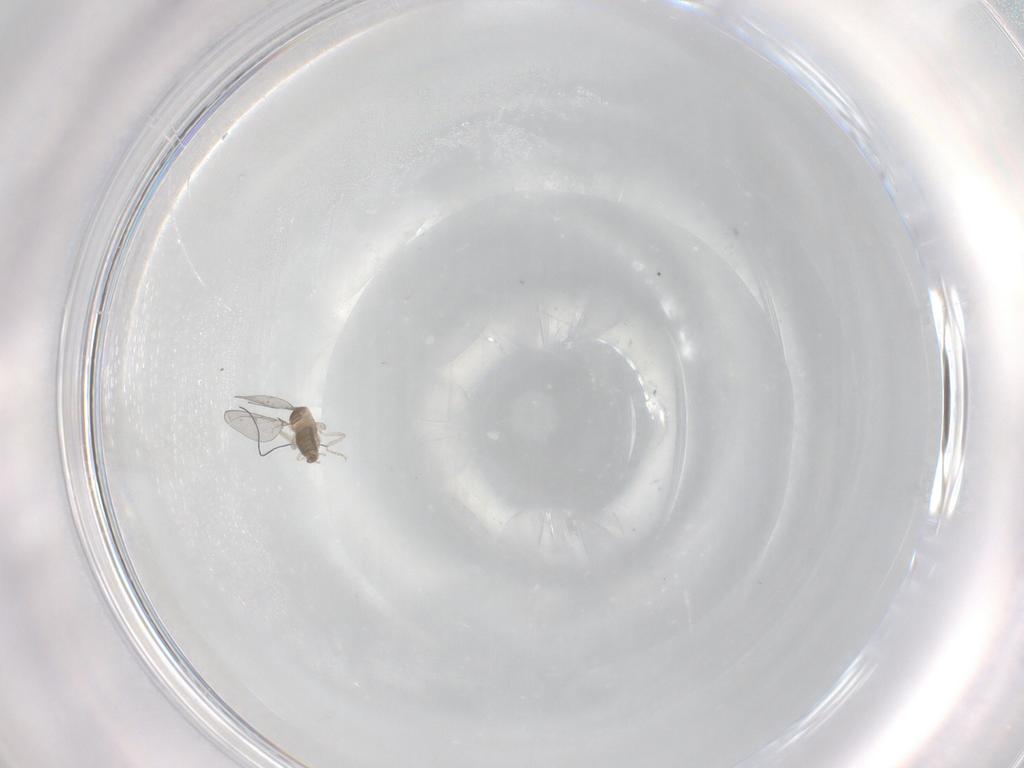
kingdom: Animalia
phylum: Arthropoda
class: Insecta
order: Diptera
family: Cecidomyiidae
